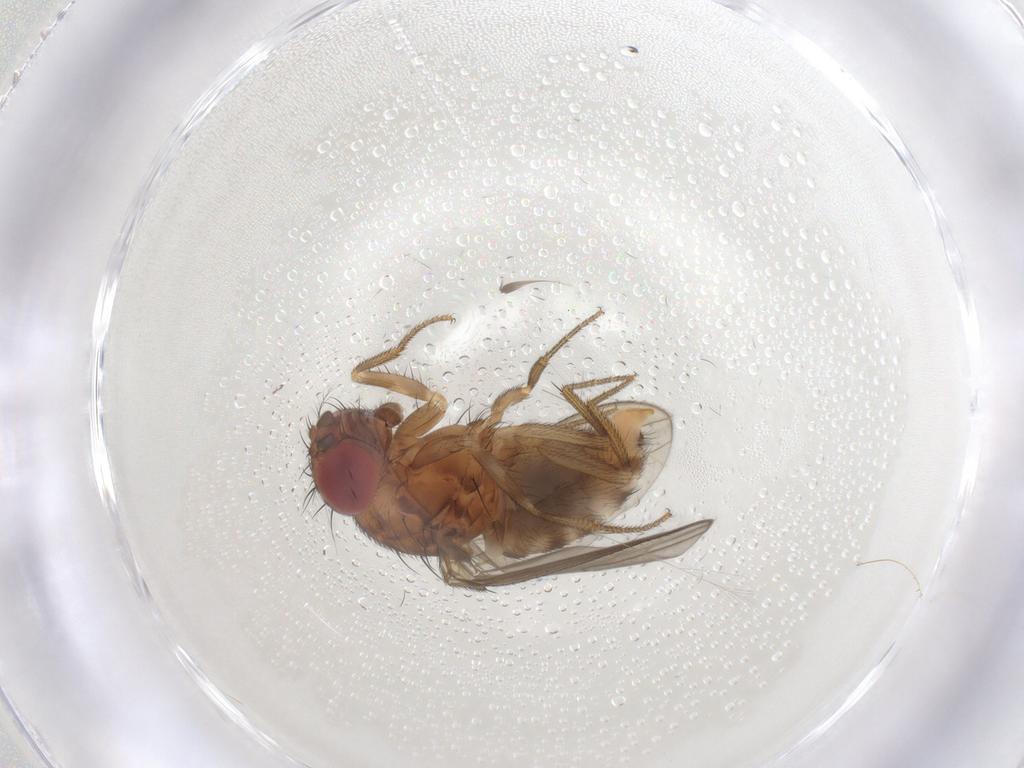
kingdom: Animalia
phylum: Arthropoda
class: Insecta
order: Diptera
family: Drosophilidae
